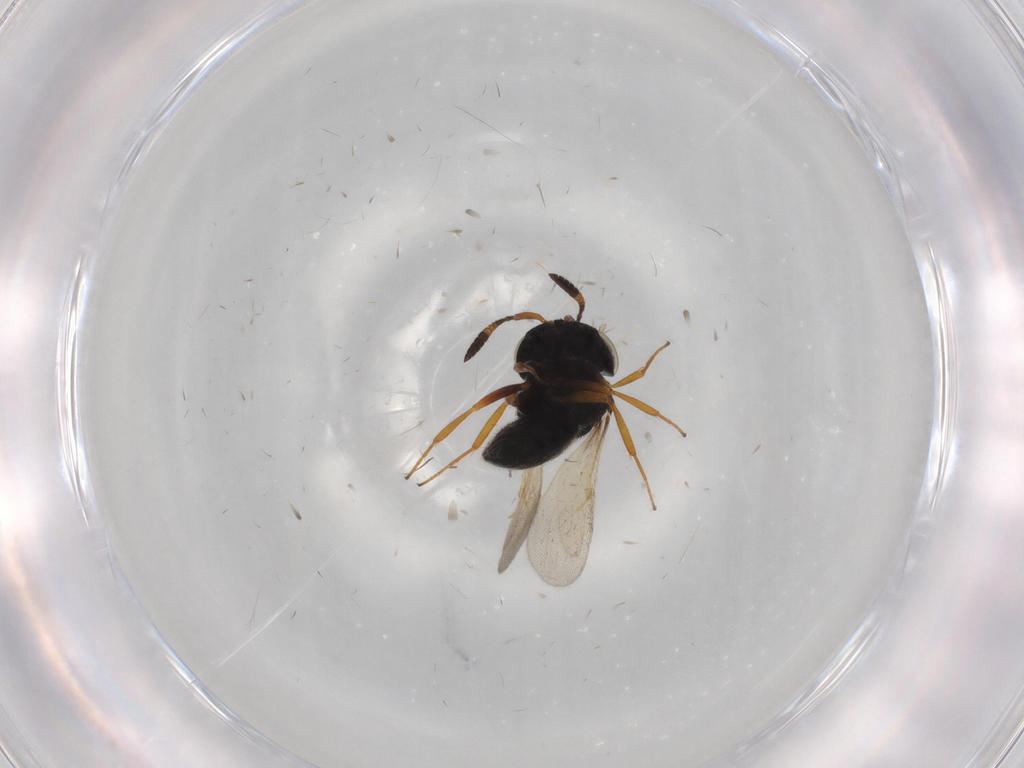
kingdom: Animalia
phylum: Arthropoda
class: Insecta
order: Hymenoptera
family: Scelionidae
